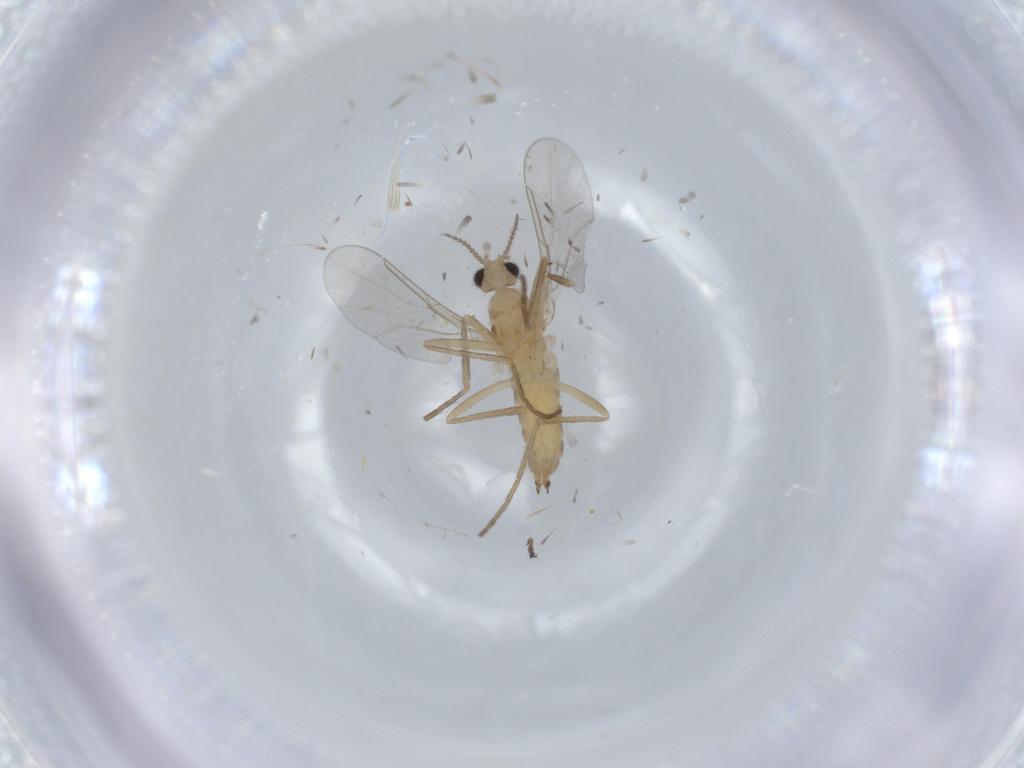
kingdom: Animalia
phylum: Arthropoda
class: Insecta
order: Diptera
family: Cecidomyiidae
